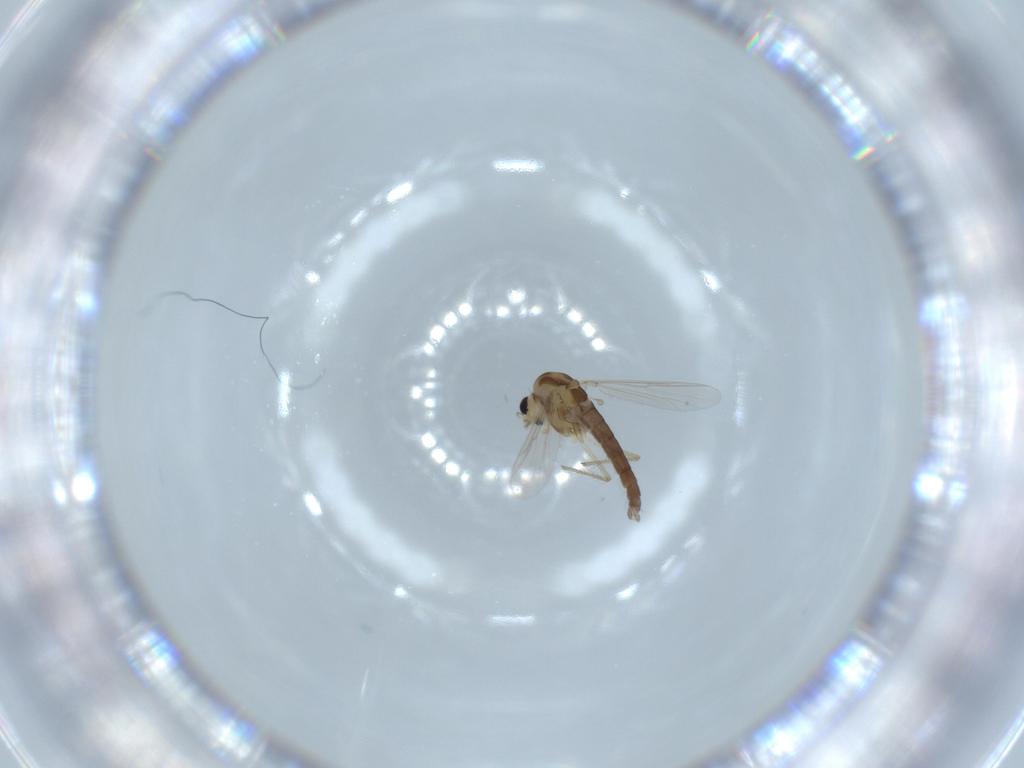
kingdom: Animalia
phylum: Arthropoda
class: Insecta
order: Diptera
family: Chironomidae
